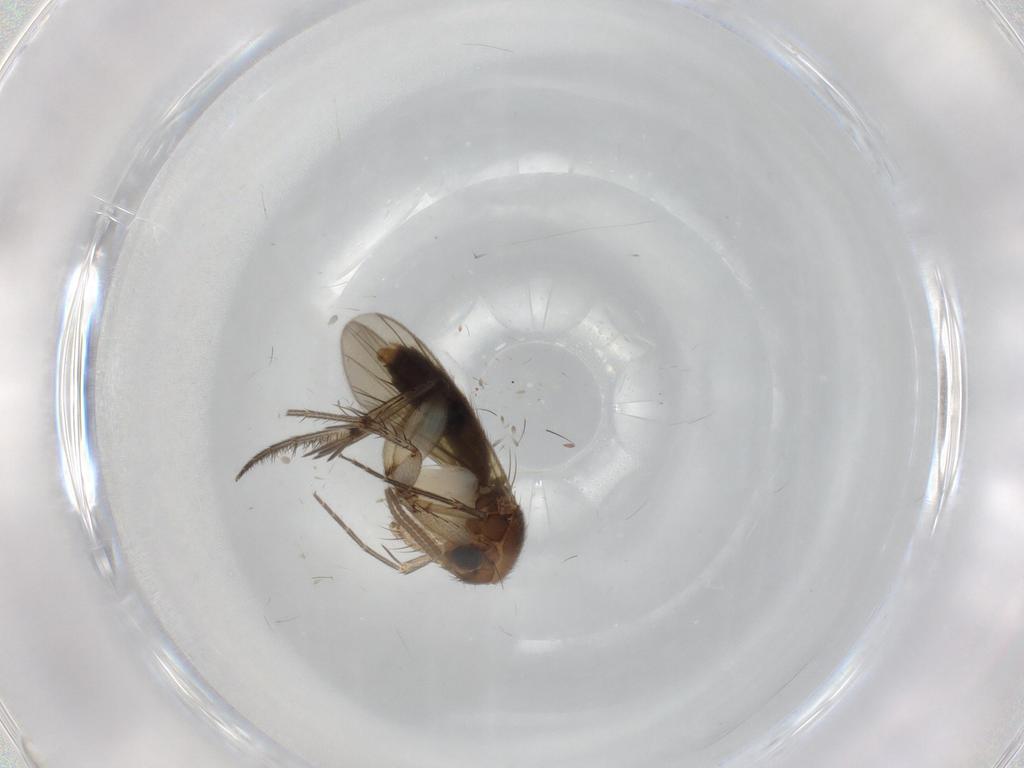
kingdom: Animalia
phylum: Arthropoda
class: Insecta
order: Diptera
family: Mycetophilidae
